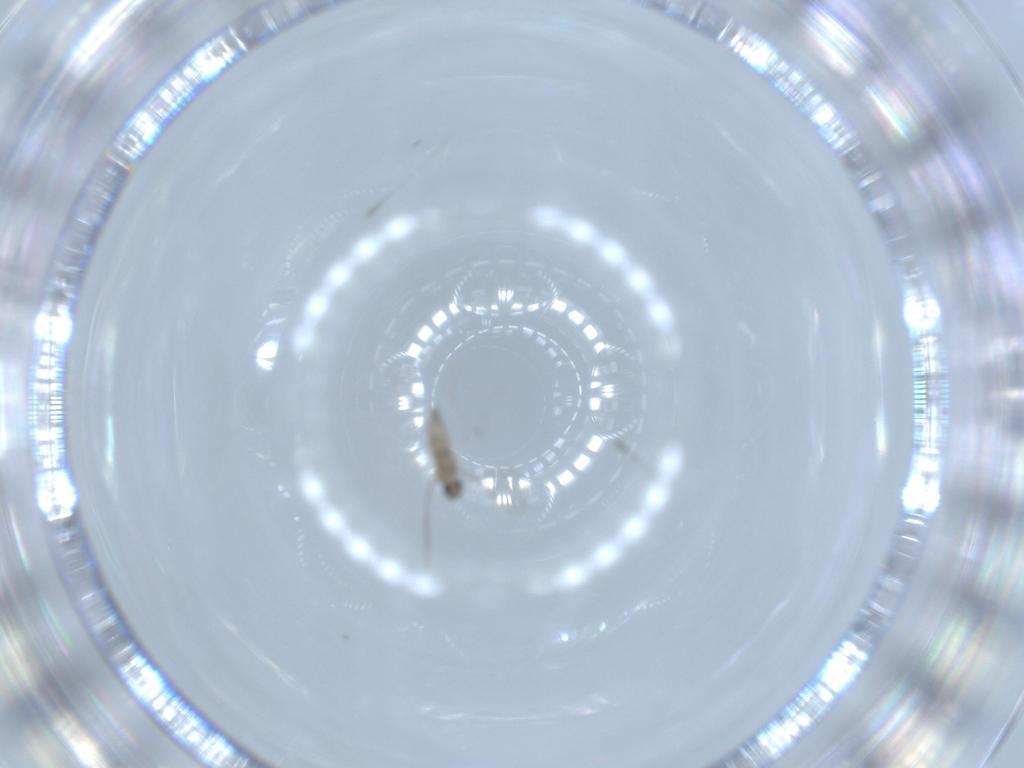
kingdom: Animalia
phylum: Arthropoda
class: Insecta
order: Diptera
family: Cecidomyiidae
